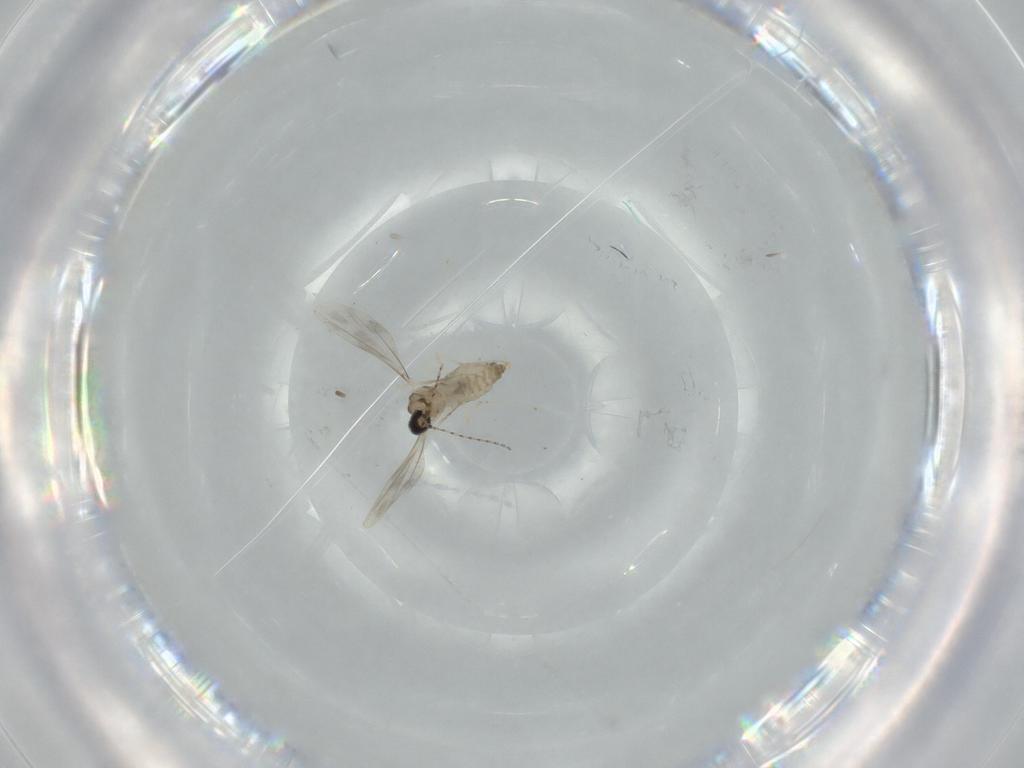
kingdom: Animalia
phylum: Arthropoda
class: Insecta
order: Diptera
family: Cecidomyiidae
